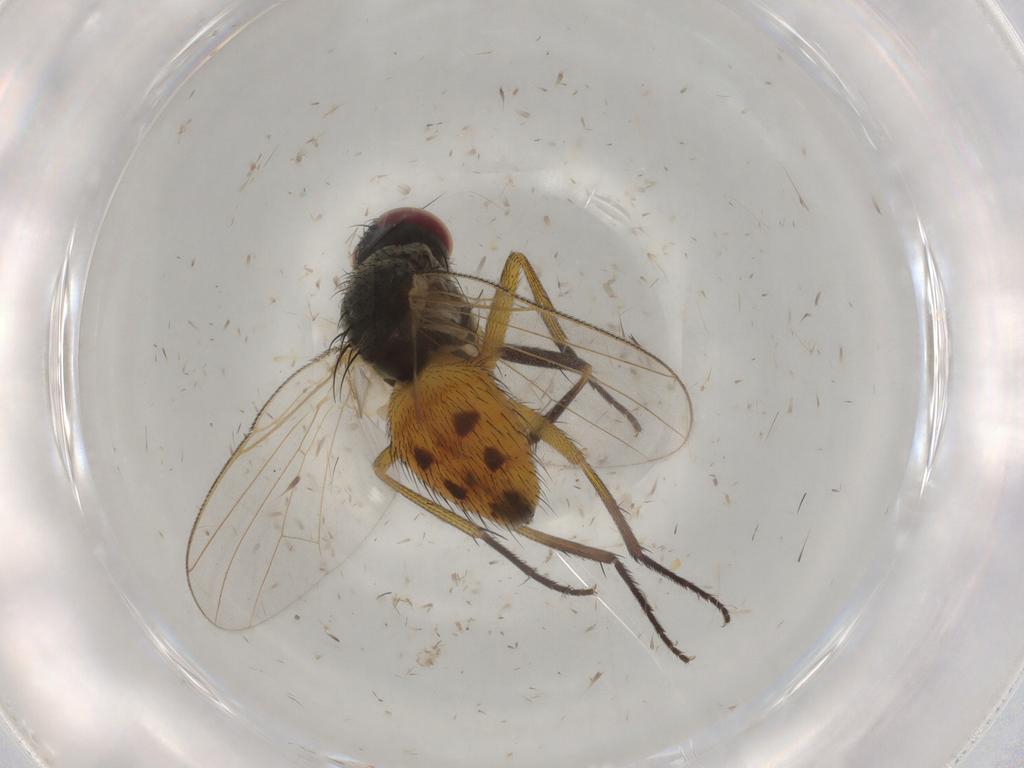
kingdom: Animalia
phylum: Arthropoda
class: Insecta
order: Diptera
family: Muscidae
